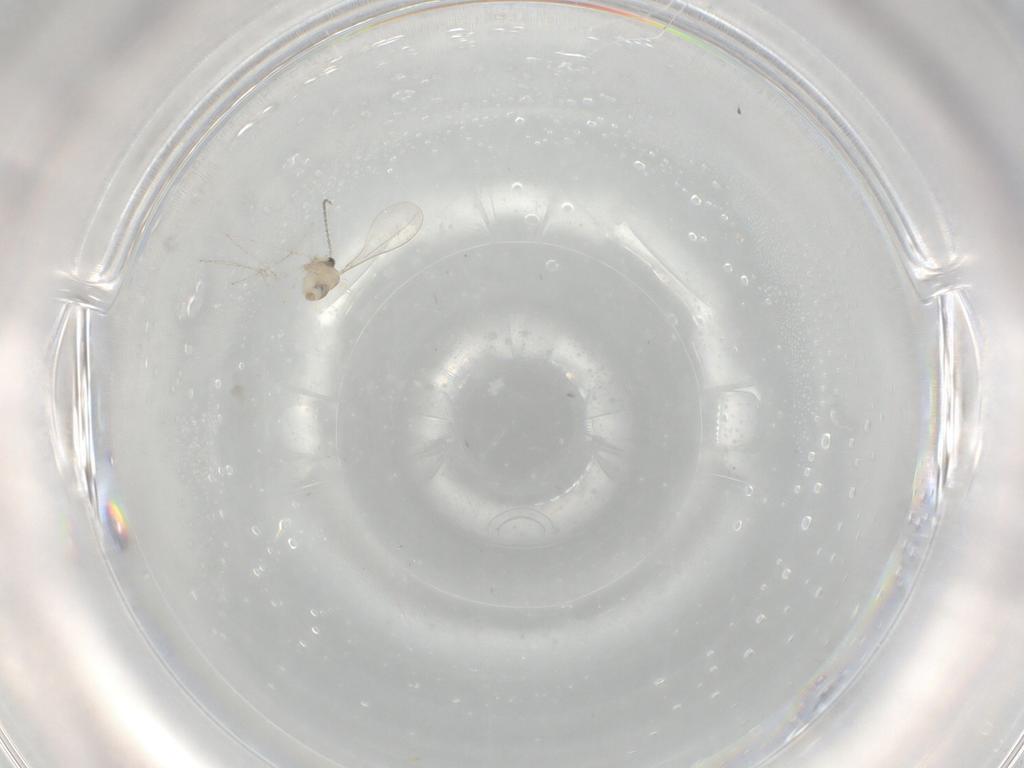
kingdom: Animalia
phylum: Arthropoda
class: Insecta
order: Diptera
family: Cecidomyiidae
